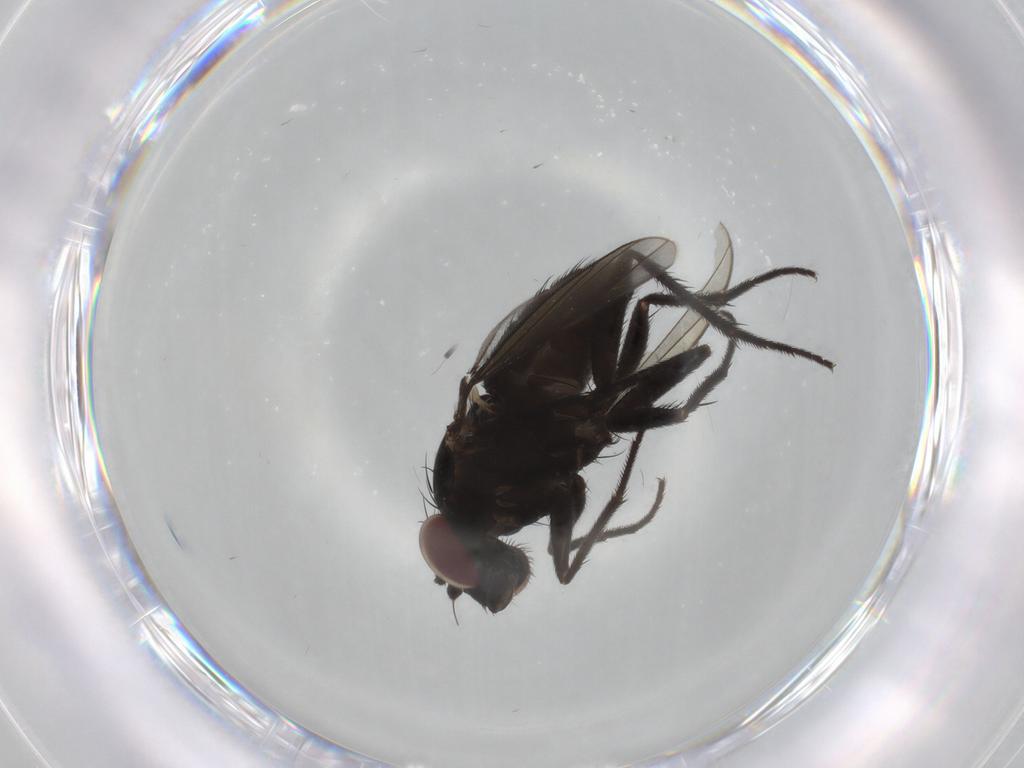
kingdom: Animalia
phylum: Arthropoda
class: Insecta
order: Diptera
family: Dolichopodidae
